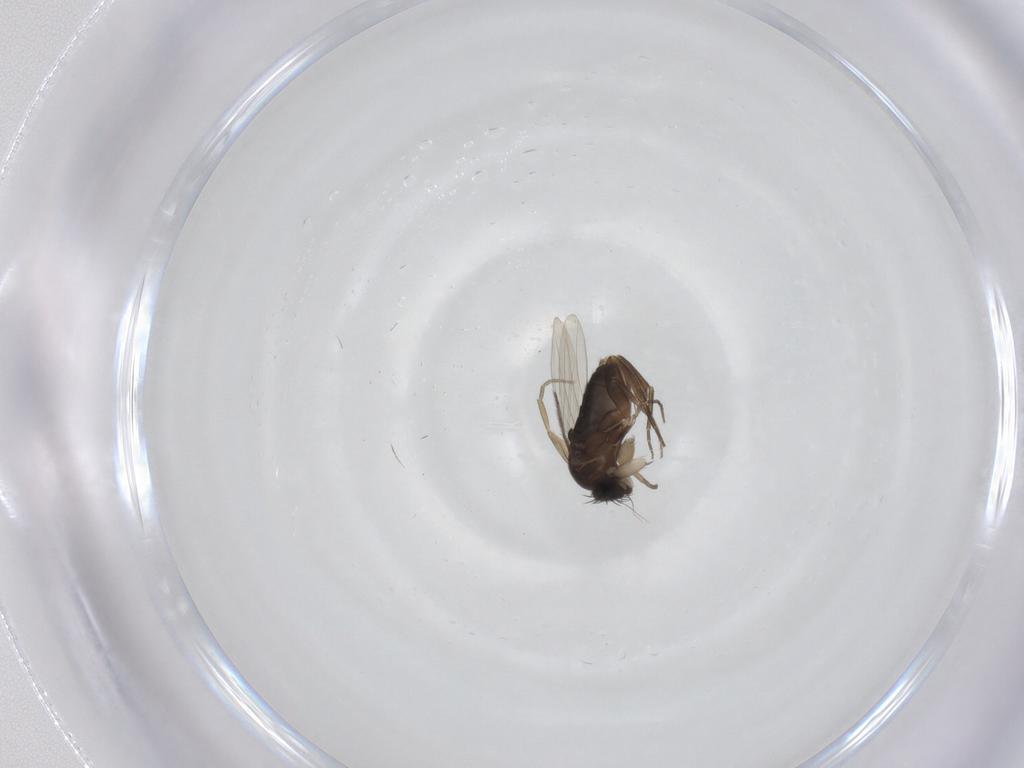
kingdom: Animalia
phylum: Arthropoda
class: Insecta
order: Diptera
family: Phoridae
